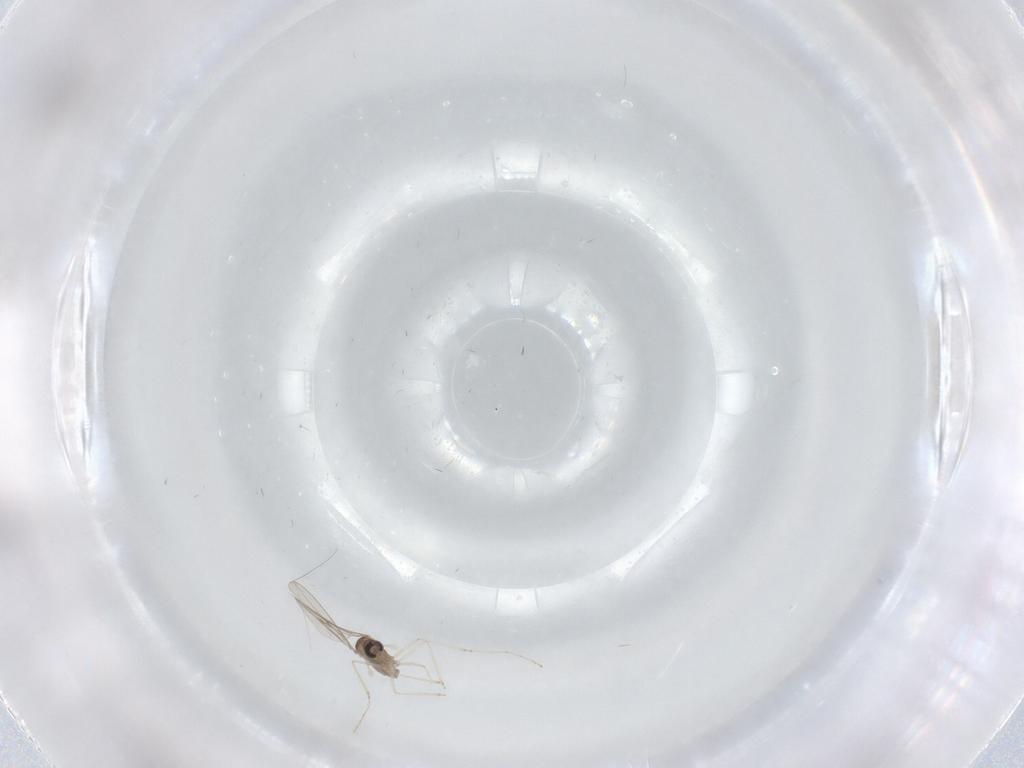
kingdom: Animalia
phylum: Arthropoda
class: Insecta
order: Diptera
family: Cecidomyiidae
